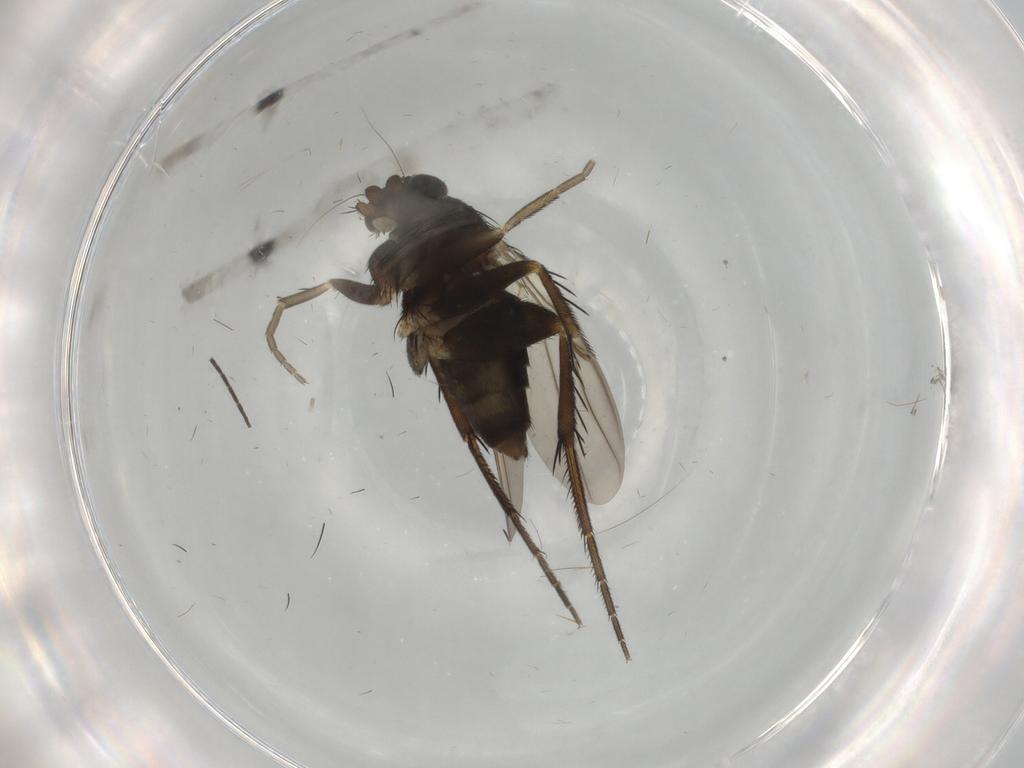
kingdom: Animalia
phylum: Arthropoda
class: Insecta
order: Diptera
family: Phoridae
